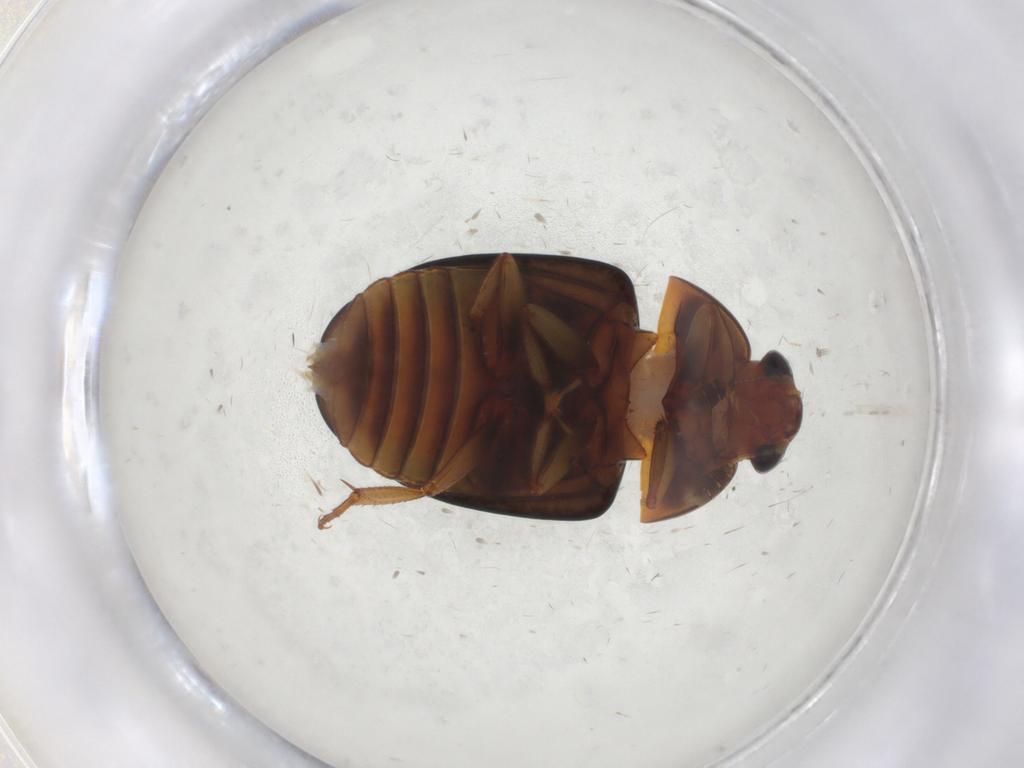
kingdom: Animalia
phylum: Arthropoda
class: Insecta
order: Coleoptera
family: Nitidulidae
